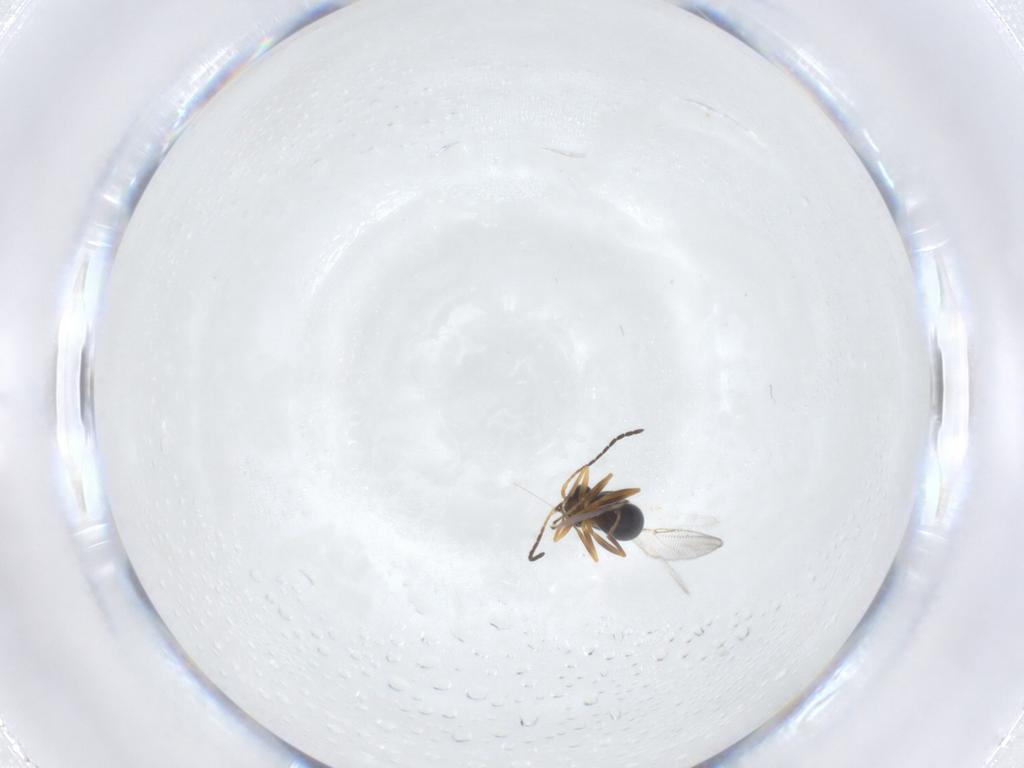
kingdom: Animalia
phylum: Arthropoda
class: Insecta
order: Hymenoptera
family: Figitidae
